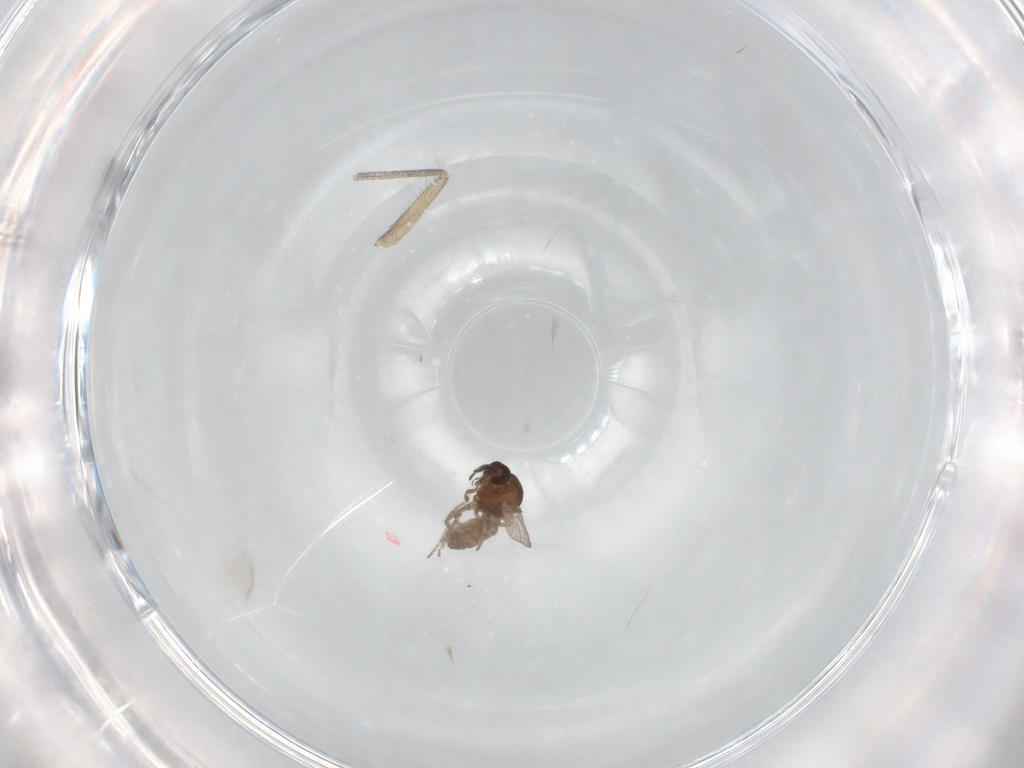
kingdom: Animalia
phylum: Arthropoda
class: Insecta
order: Diptera
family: Ceratopogonidae
